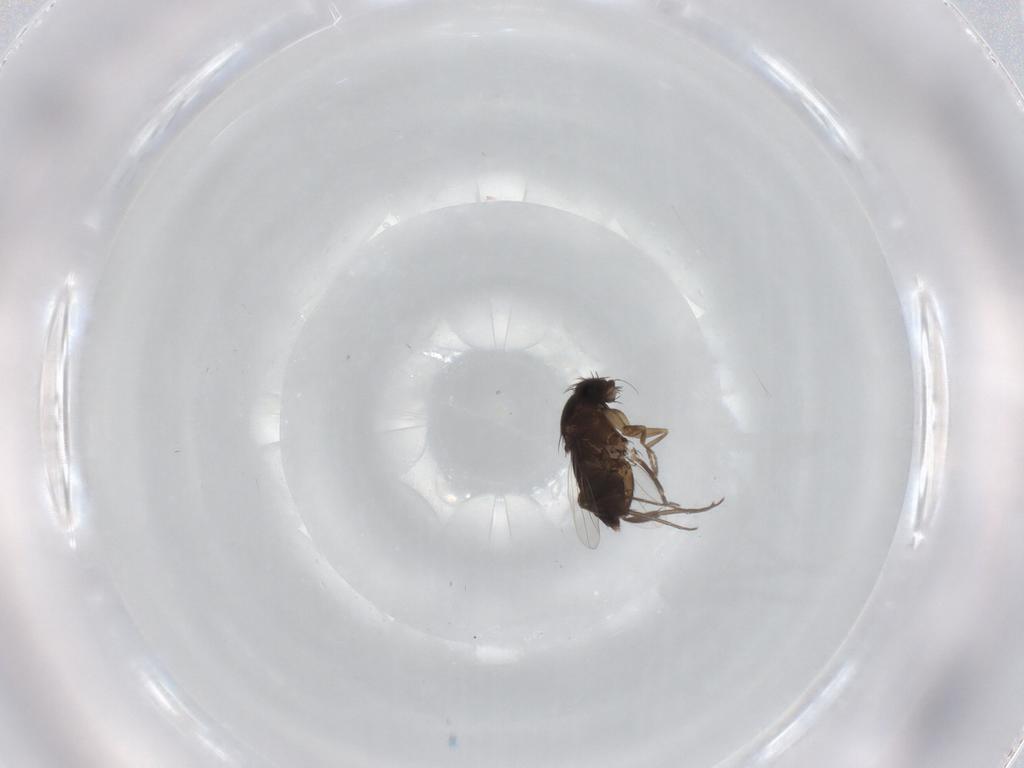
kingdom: Animalia
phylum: Arthropoda
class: Insecta
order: Diptera
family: Phoridae
